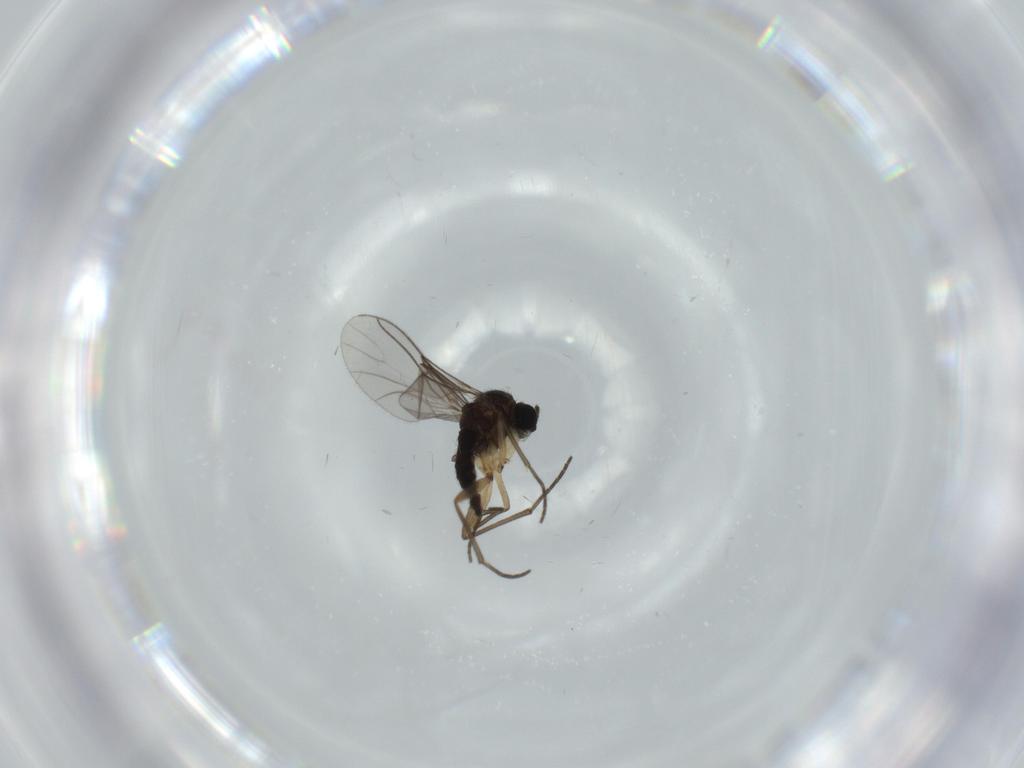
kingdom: Animalia
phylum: Arthropoda
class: Insecta
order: Diptera
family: Sciaridae
